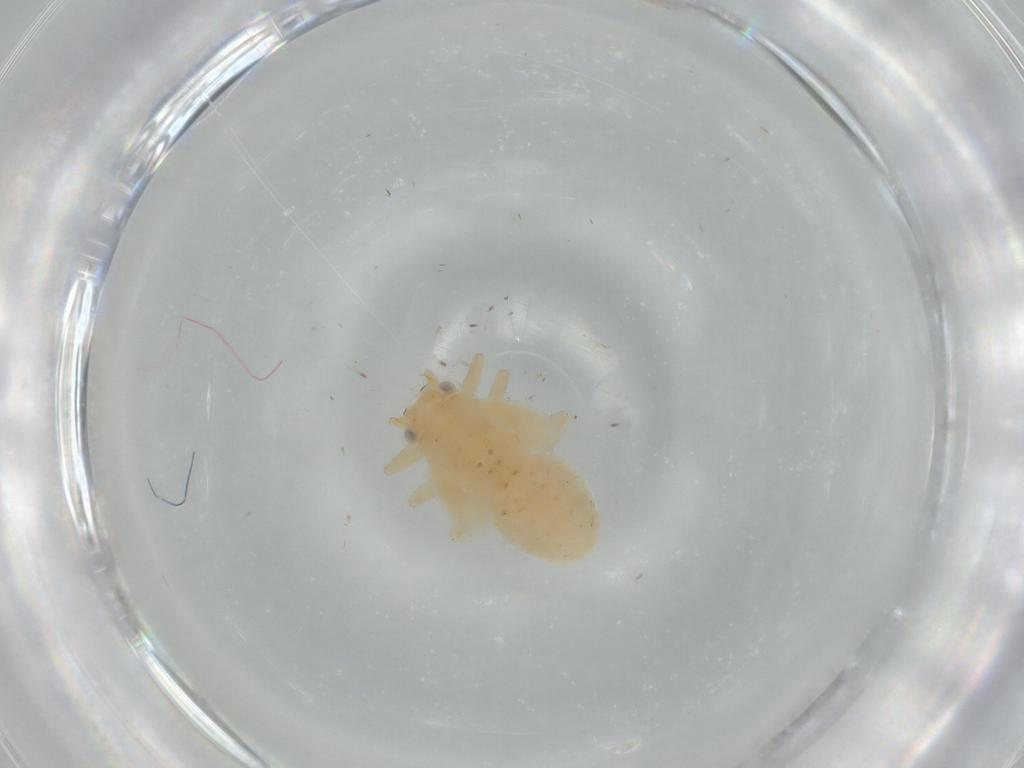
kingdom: Animalia
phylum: Arthropoda
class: Insecta
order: Hemiptera
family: Psyllidae
